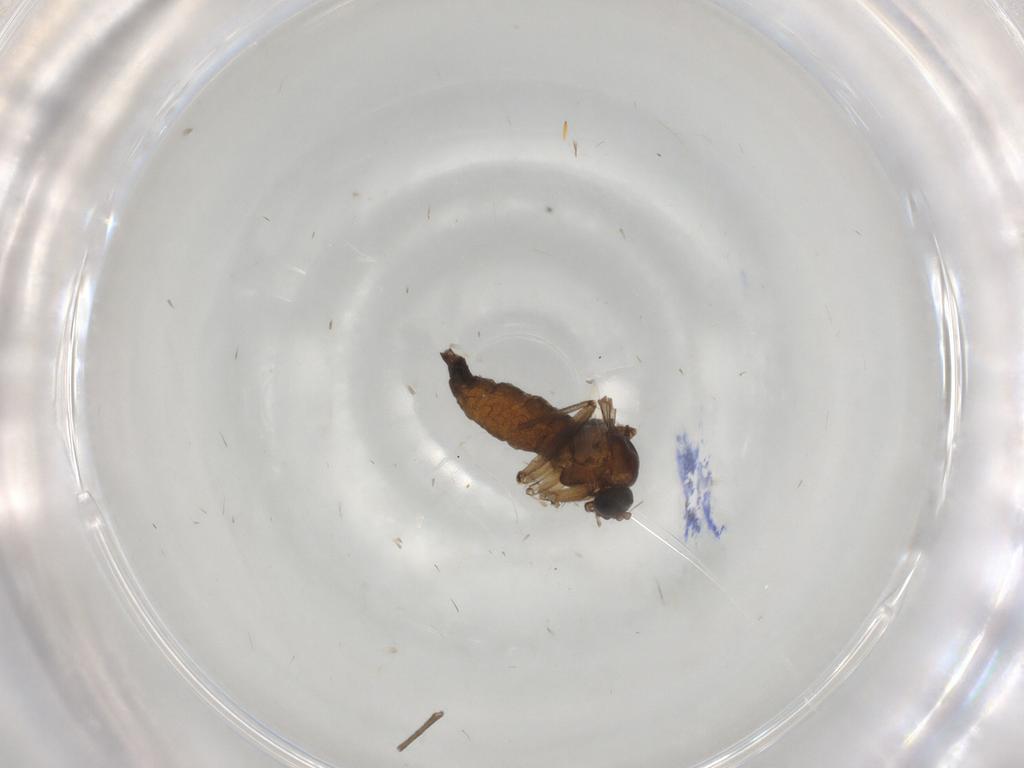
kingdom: Animalia
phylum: Arthropoda
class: Insecta
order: Diptera
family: Sciaridae
